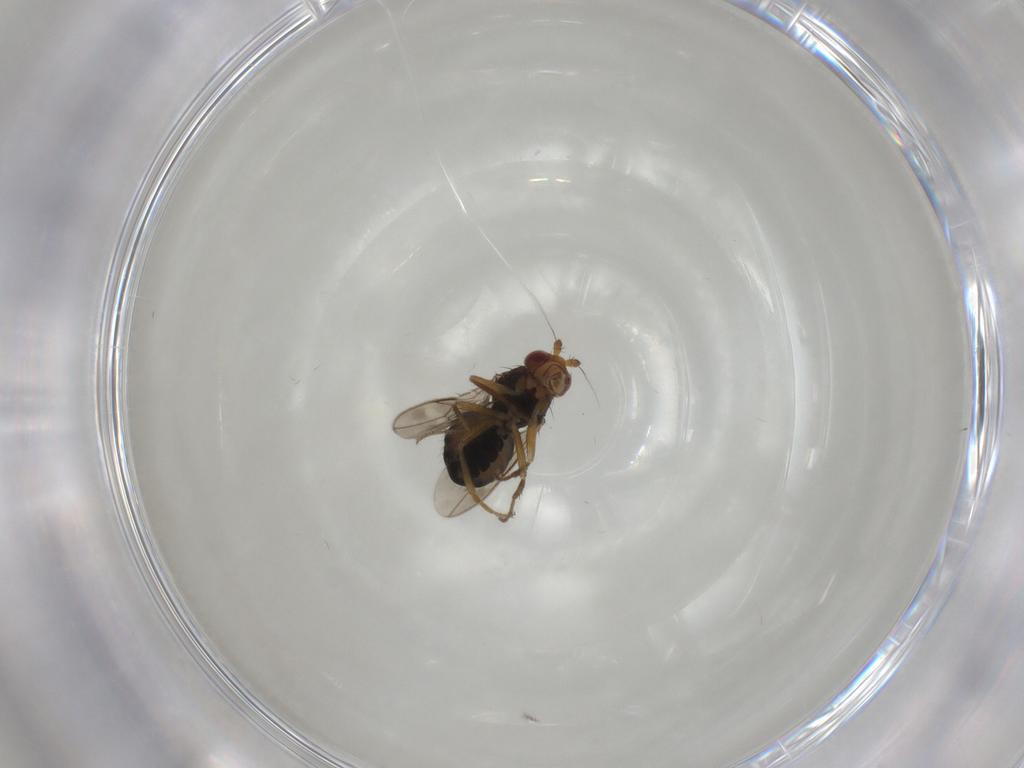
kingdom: Animalia
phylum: Arthropoda
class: Insecta
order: Diptera
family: Sphaeroceridae
